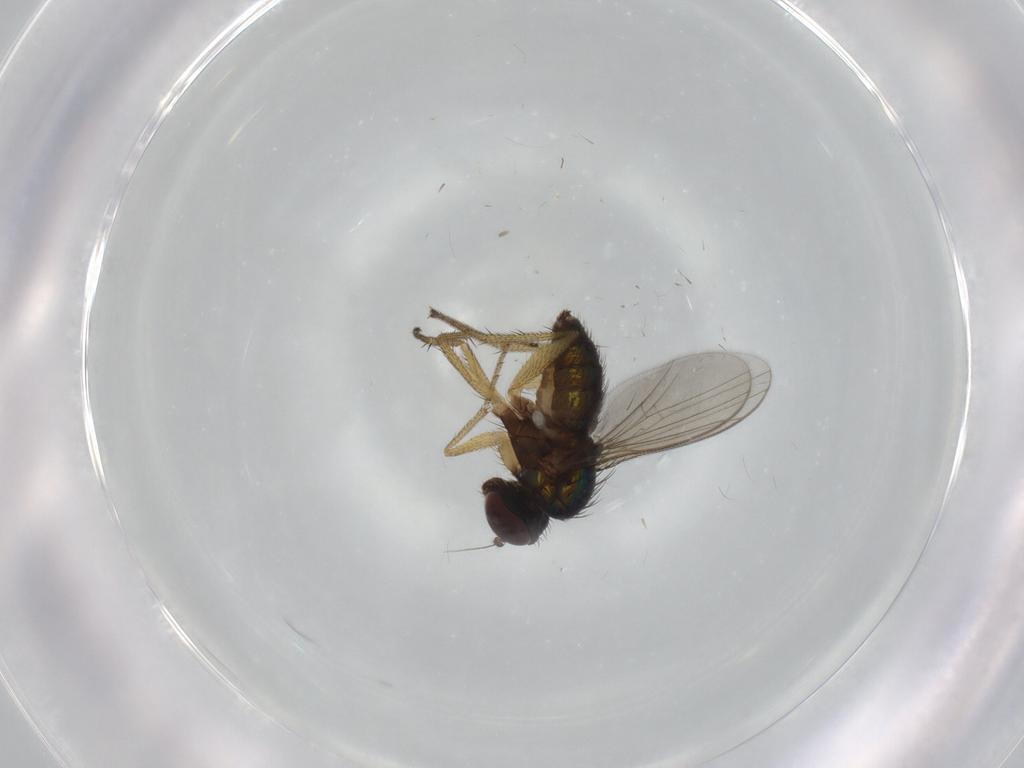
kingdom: Animalia
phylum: Arthropoda
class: Insecta
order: Diptera
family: Dolichopodidae
